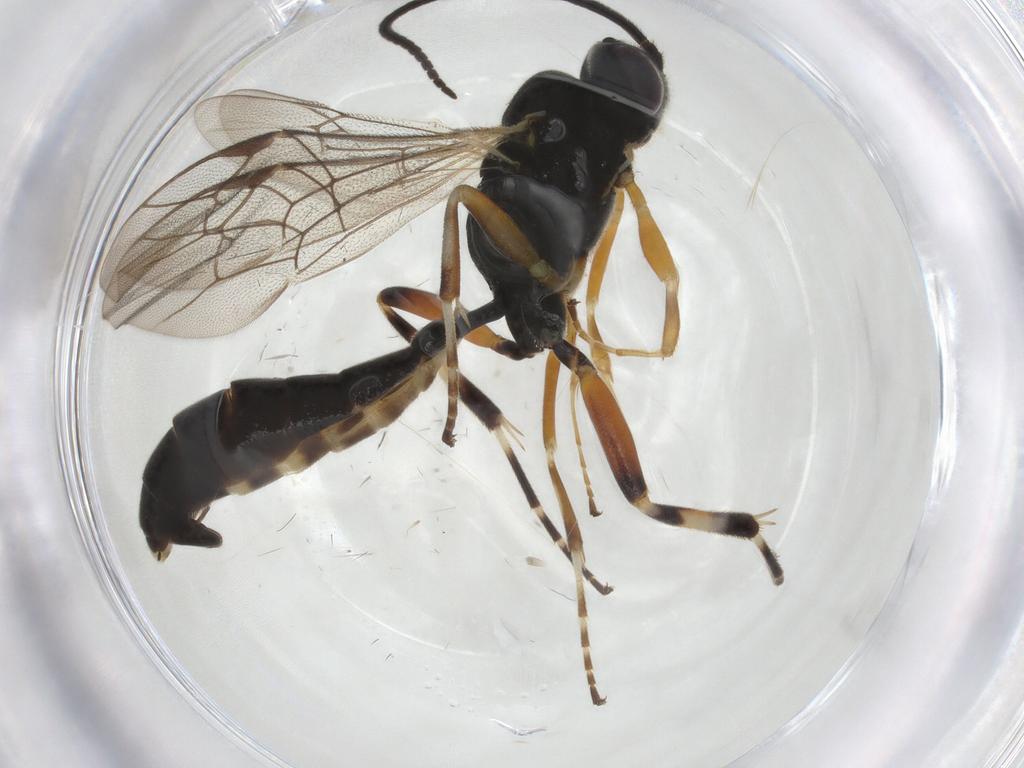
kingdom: Animalia
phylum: Arthropoda
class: Insecta
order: Hymenoptera
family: Ichneumonidae
